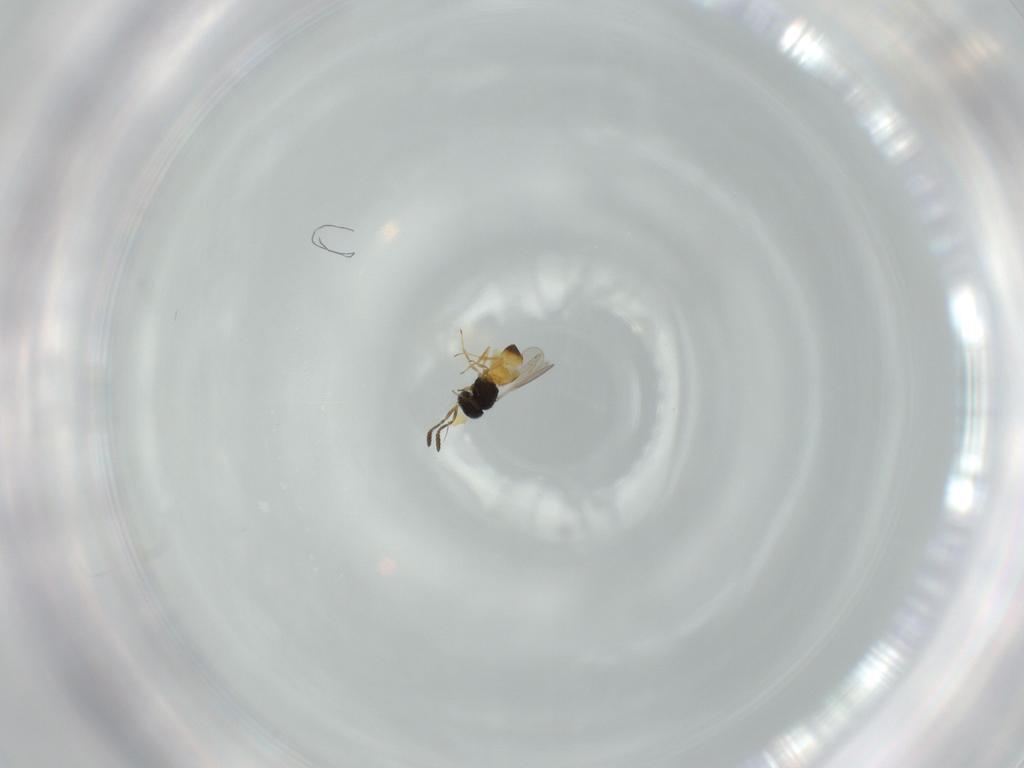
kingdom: Animalia
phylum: Arthropoda
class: Insecta
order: Hymenoptera
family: Scelionidae
